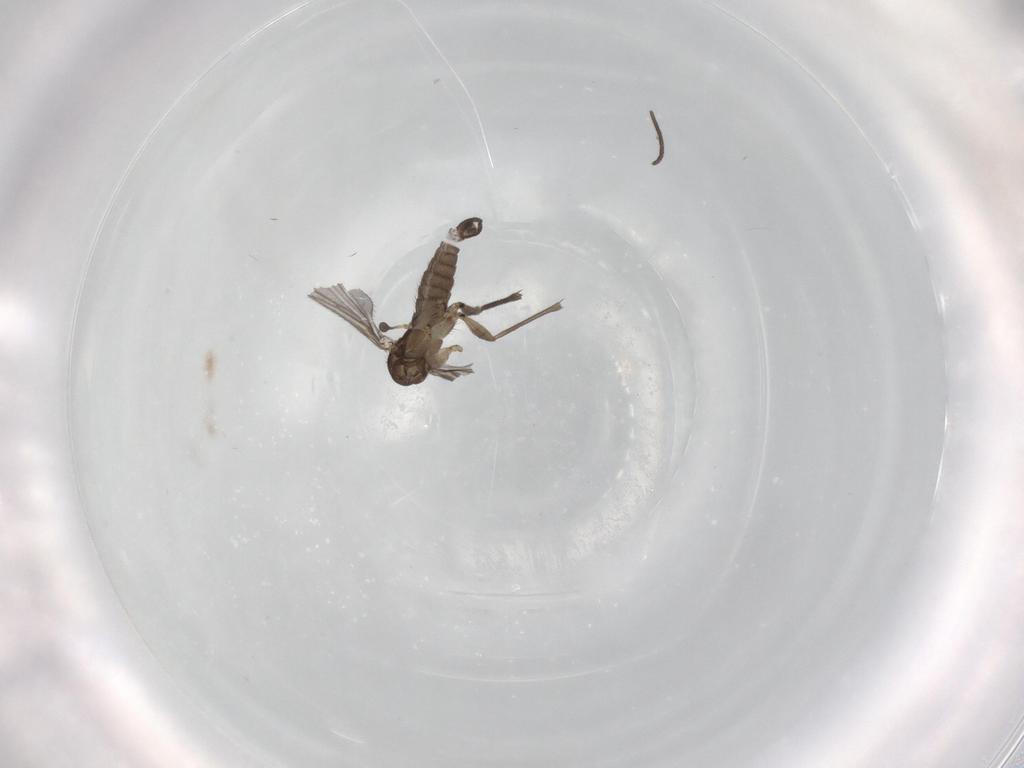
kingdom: Animalia
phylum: Arthropoda
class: Insecta
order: Diptera
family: Sciaridae
